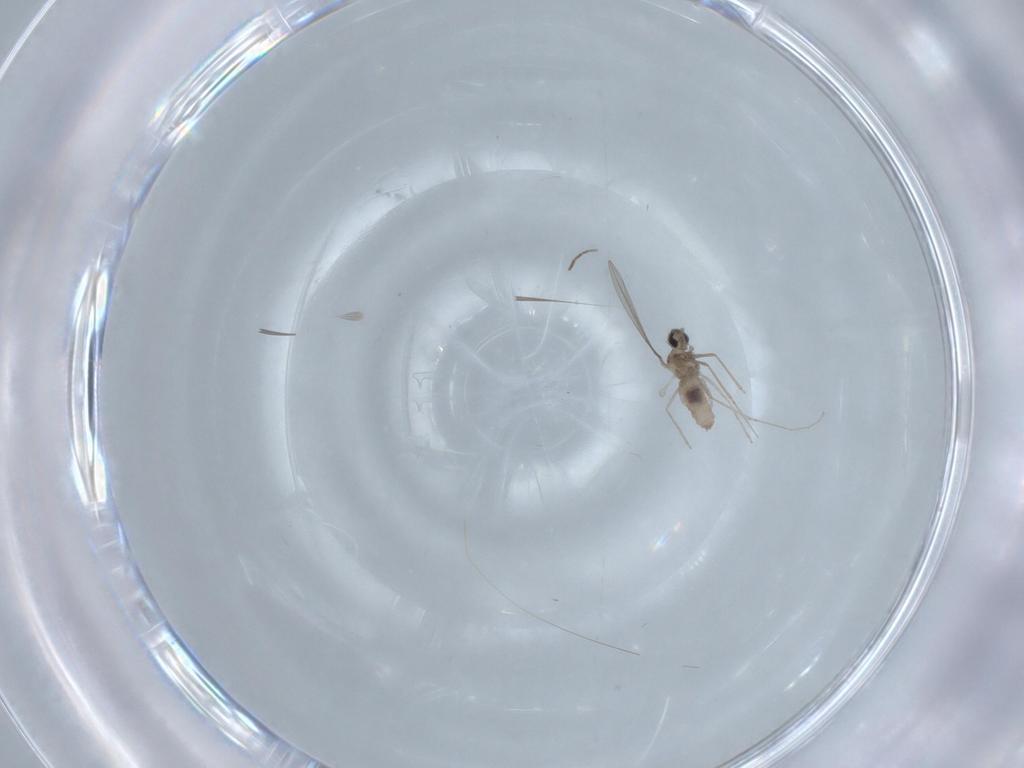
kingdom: Animalia
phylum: Arthropoda
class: Insecta
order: Diptera
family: Phoridae
